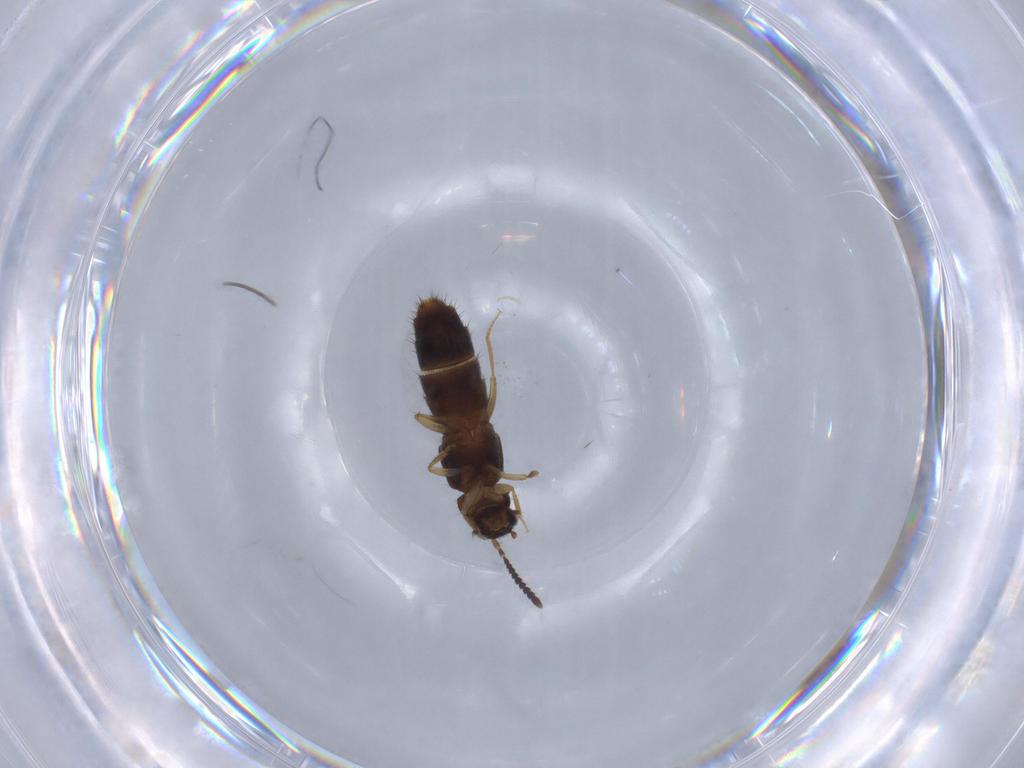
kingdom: Animalia
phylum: Arthropoda
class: Insecta
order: Coleoptera
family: Staphylinidae
